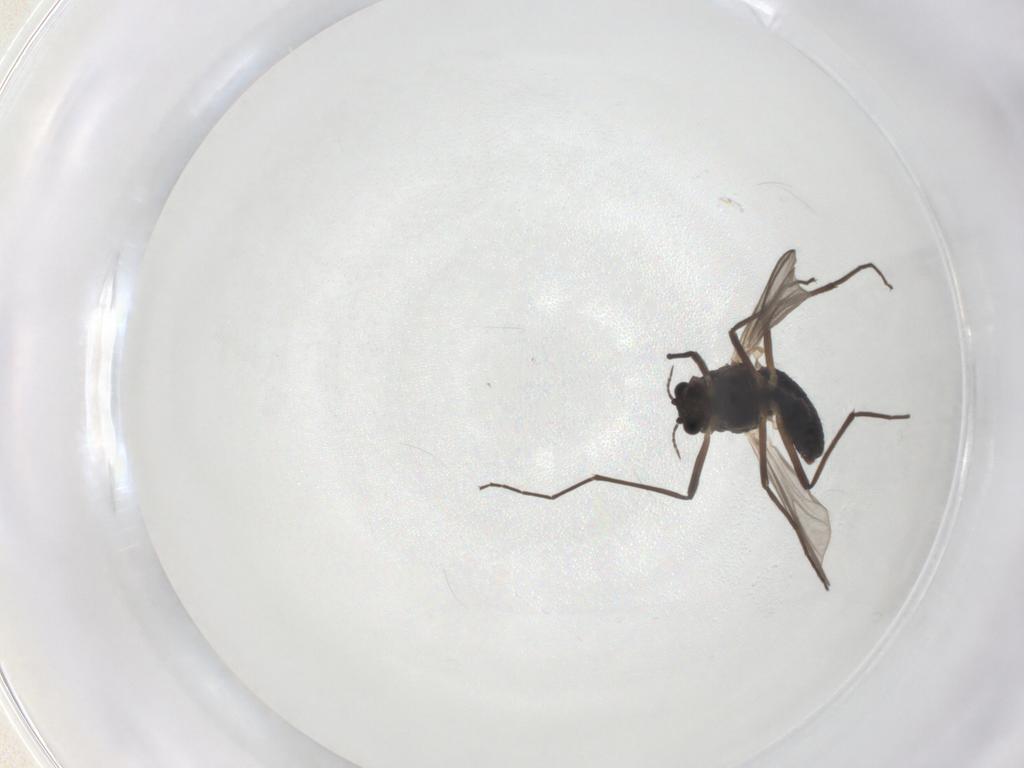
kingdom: Animalia
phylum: Arthropoda
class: Insecta
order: Diptera
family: Chironomidae
